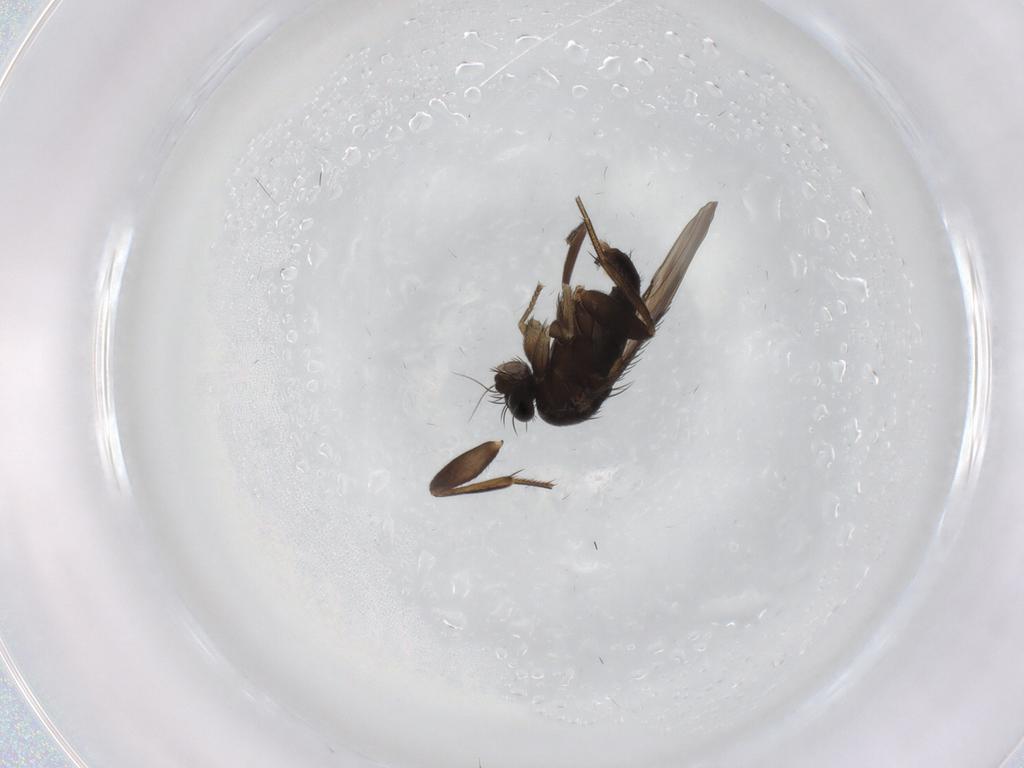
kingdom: Animalia
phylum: Arthropoda
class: Insecta
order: Diptera
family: Phoridae
